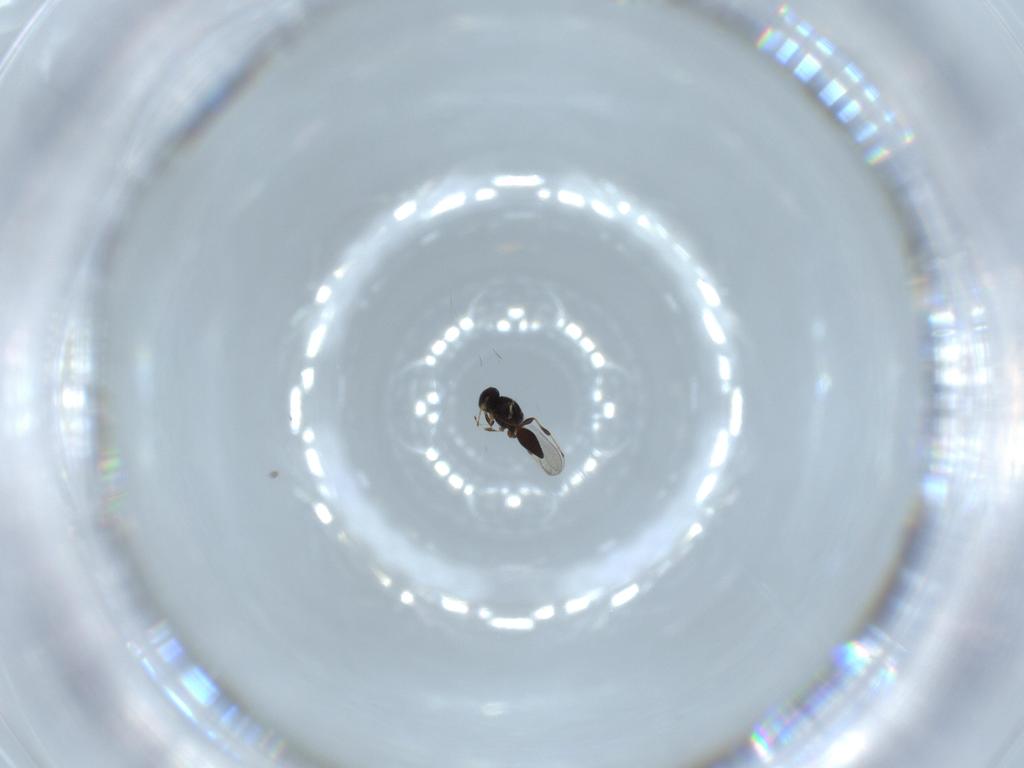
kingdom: Animalia
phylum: Arthropoda
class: Insecta
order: Hymenoptera
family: Platygastridae
